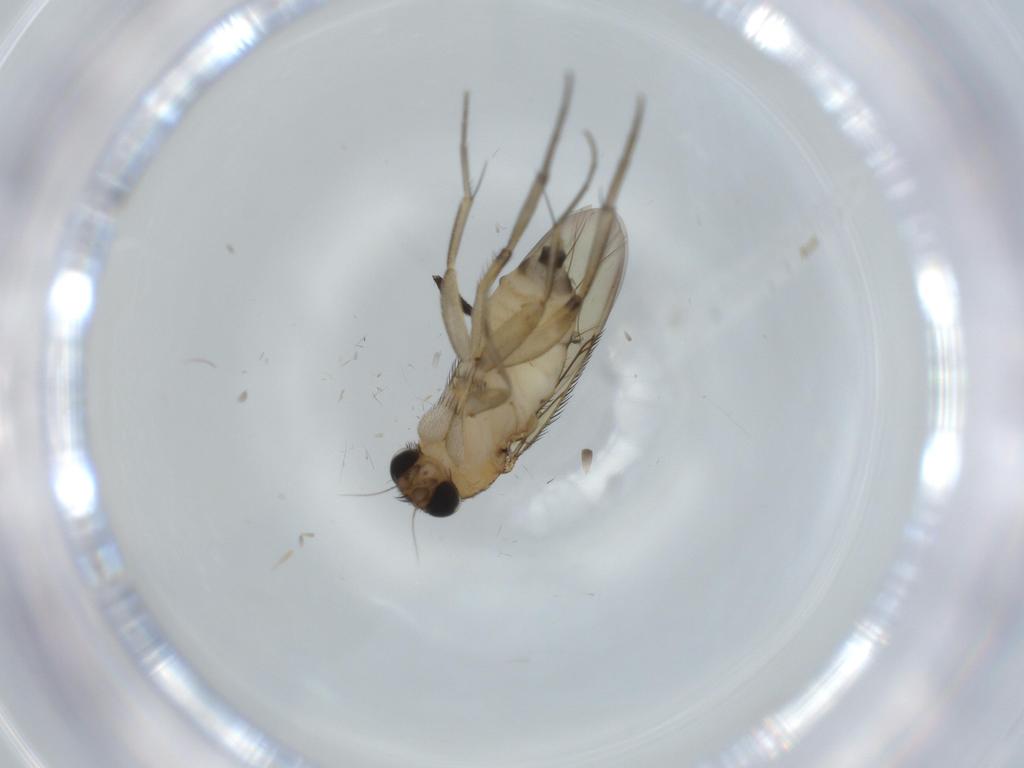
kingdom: Animalia
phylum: Arthropoda
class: Insecta
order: Diptera
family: Phoridae
